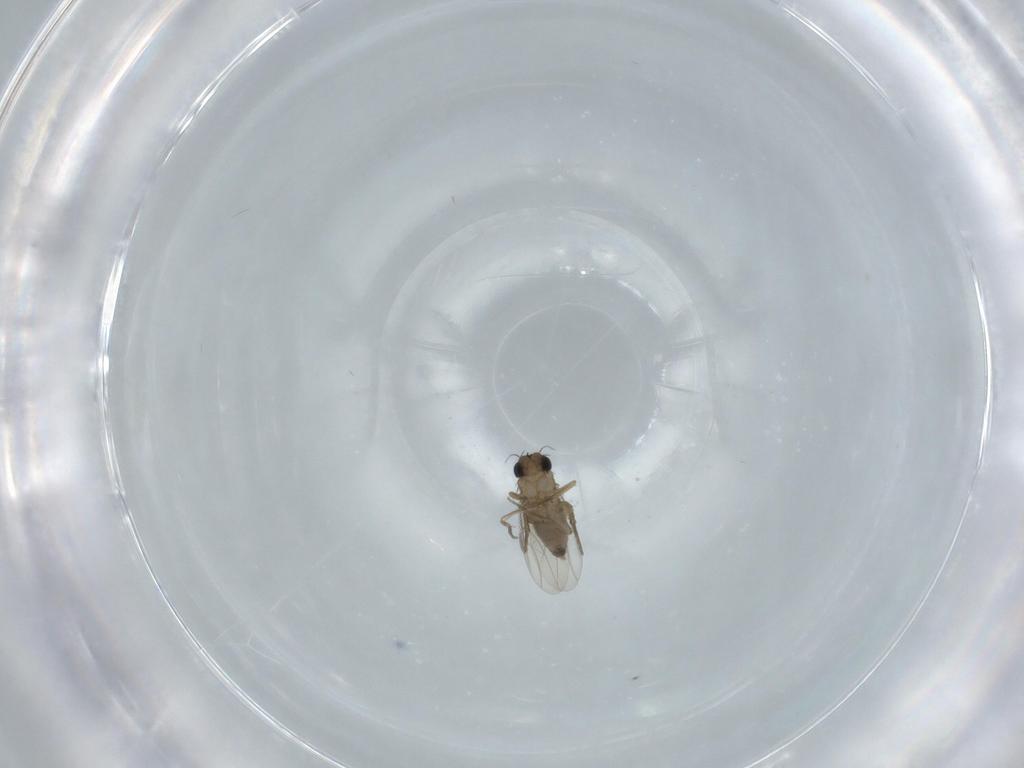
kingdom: Animalia
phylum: Arthropoda
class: Insecta
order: Diptera
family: Phoridae
